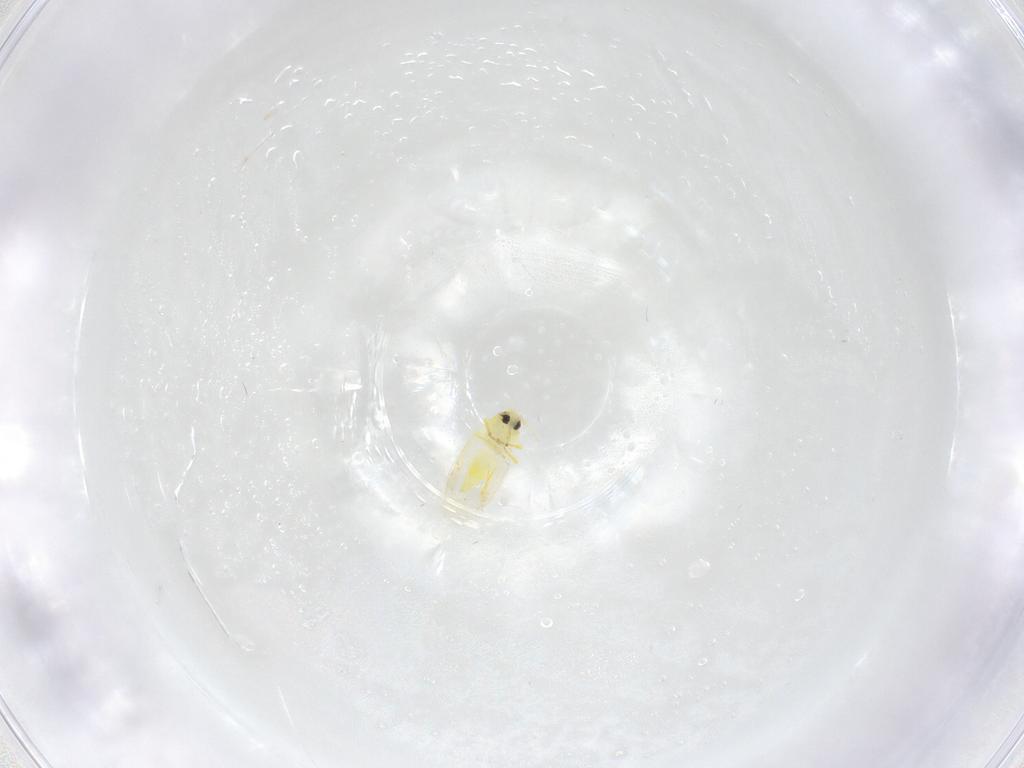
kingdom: Animalia
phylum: Arthropoda
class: Insecta
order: Hemiptera
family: Aleyrodidae
